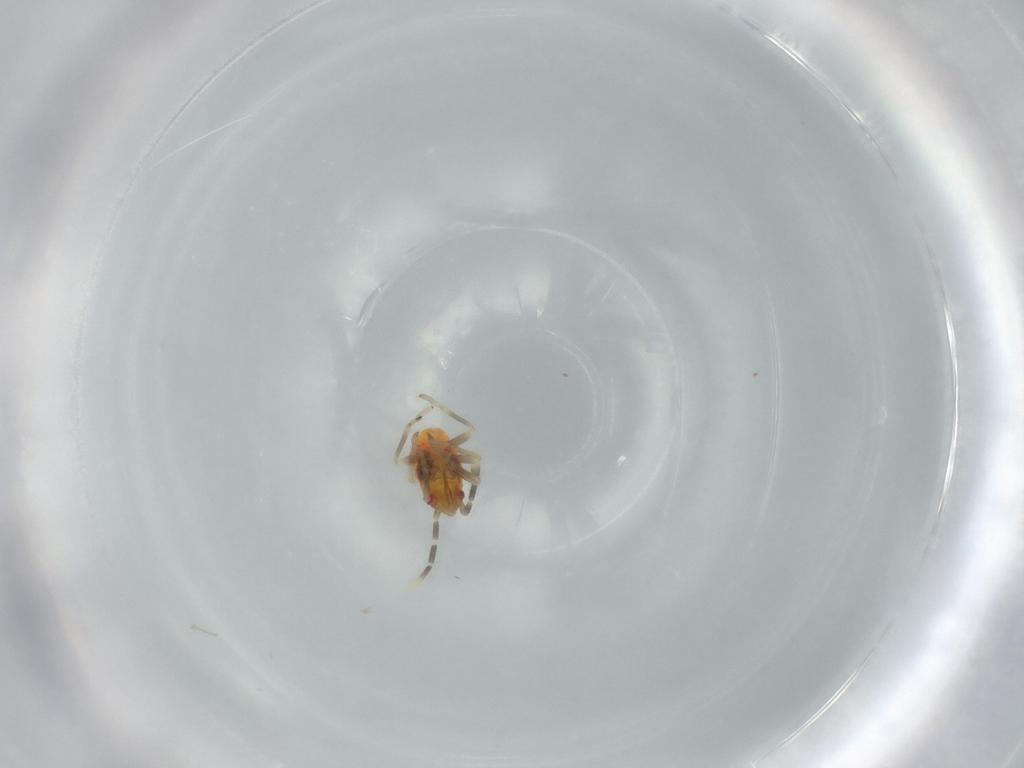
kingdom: Animalia
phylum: Arthropoda
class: Insecta
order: Hemiptera
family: Rhyparochromidae
